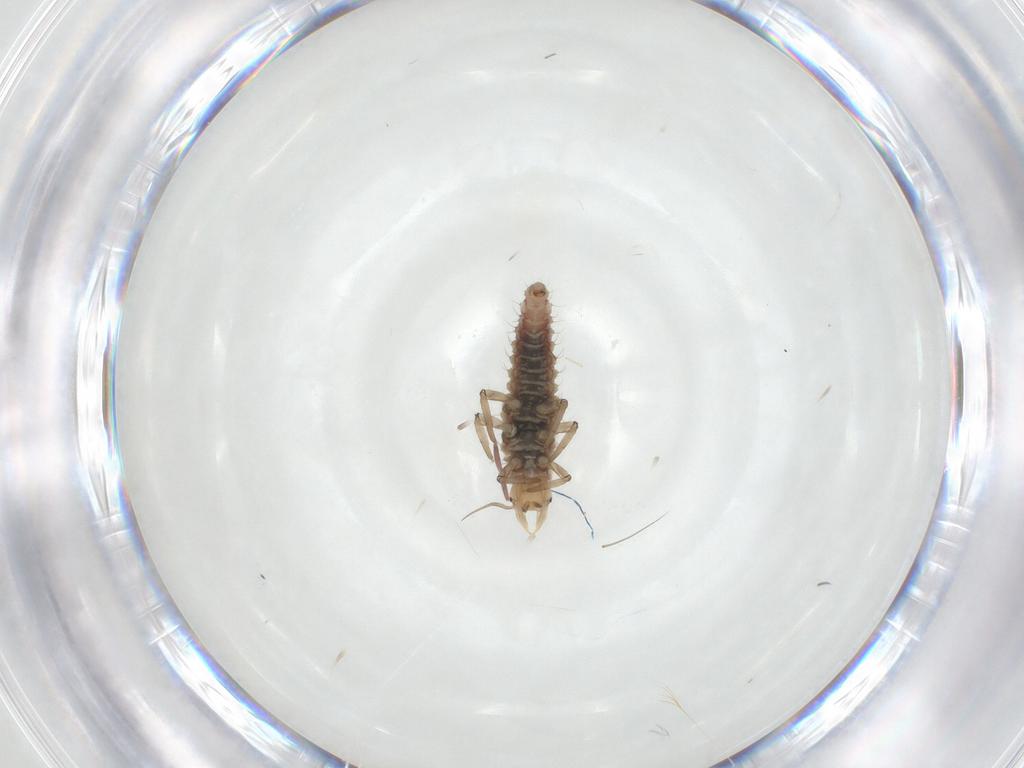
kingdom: Animalia
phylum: Arthropoda
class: Insecta
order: Neuroptera
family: Hemerobiidae
